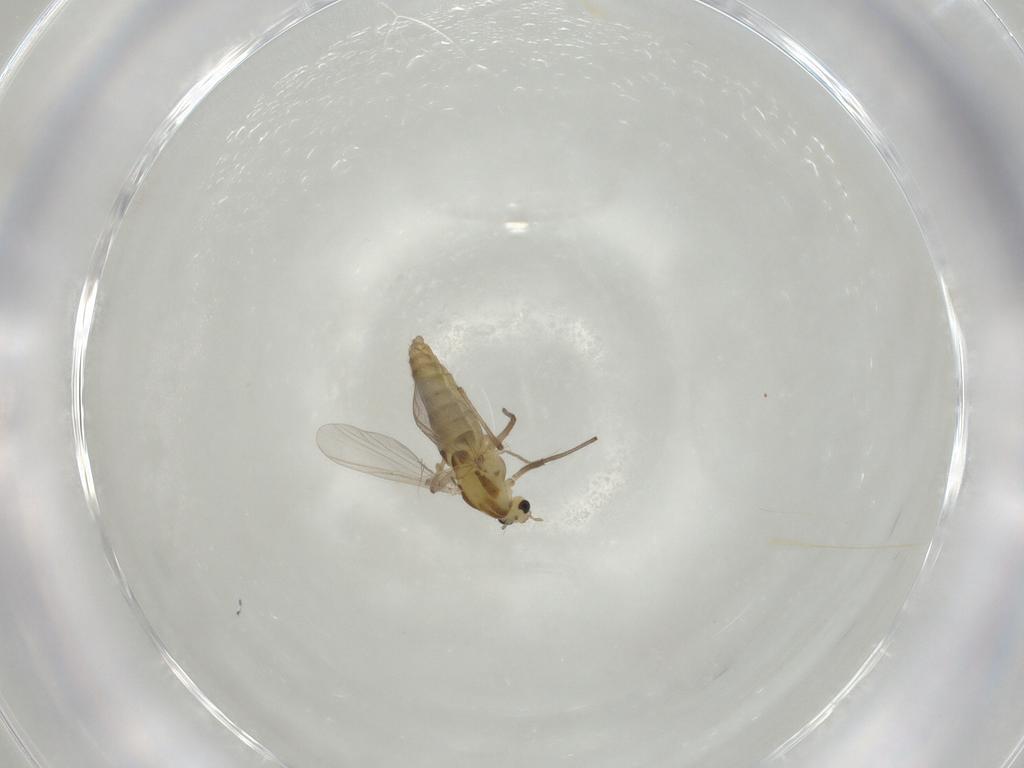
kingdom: Animalia
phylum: Arthropoda
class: Insecta
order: Diptera
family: Chironomidae
